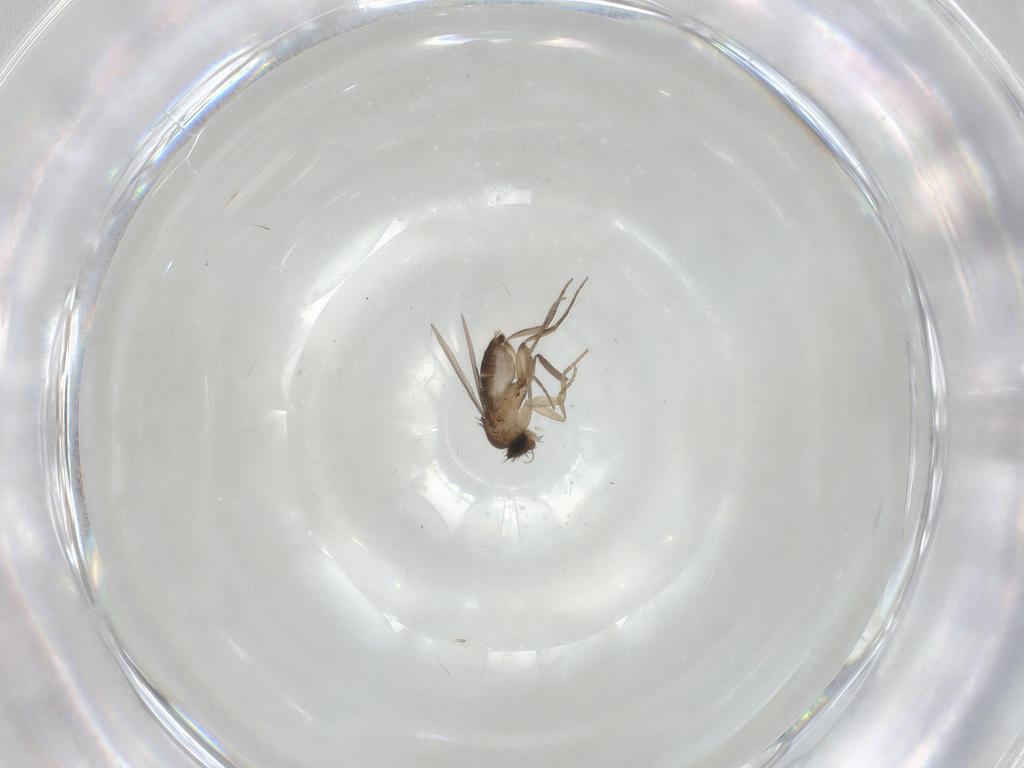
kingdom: Animalia
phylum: Arthropoda
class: Insecta
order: Diptera
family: Phoridae
